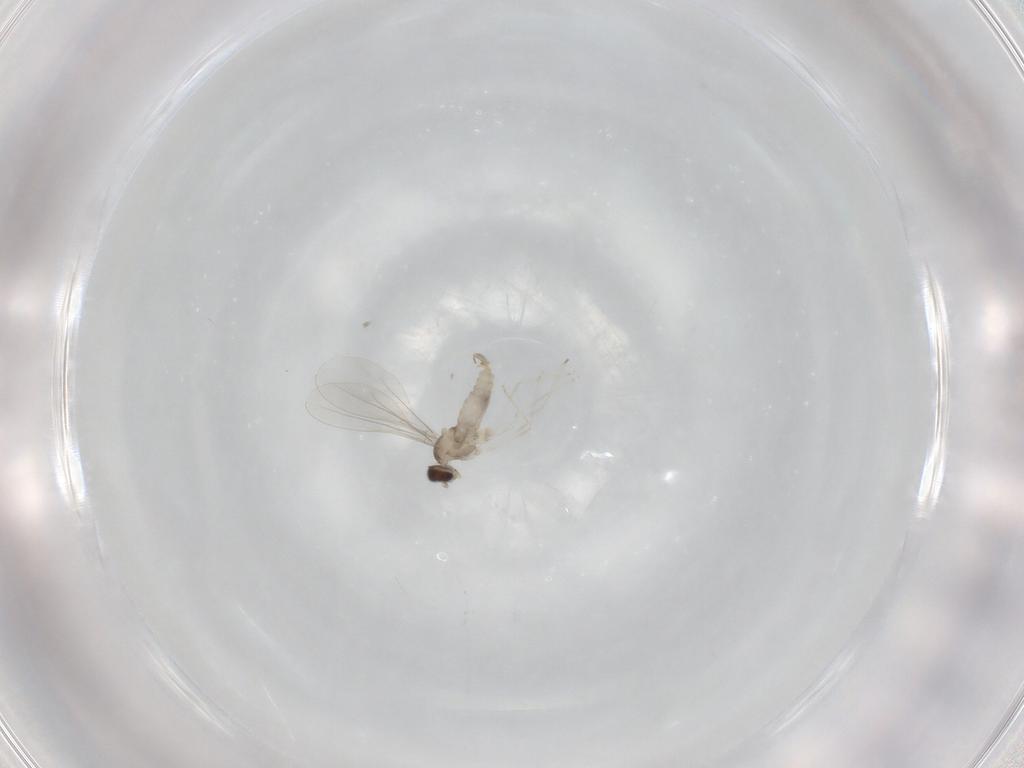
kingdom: Animalia
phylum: Arthropoda
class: Insecta
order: Diptera
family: Cecidomyiidae
